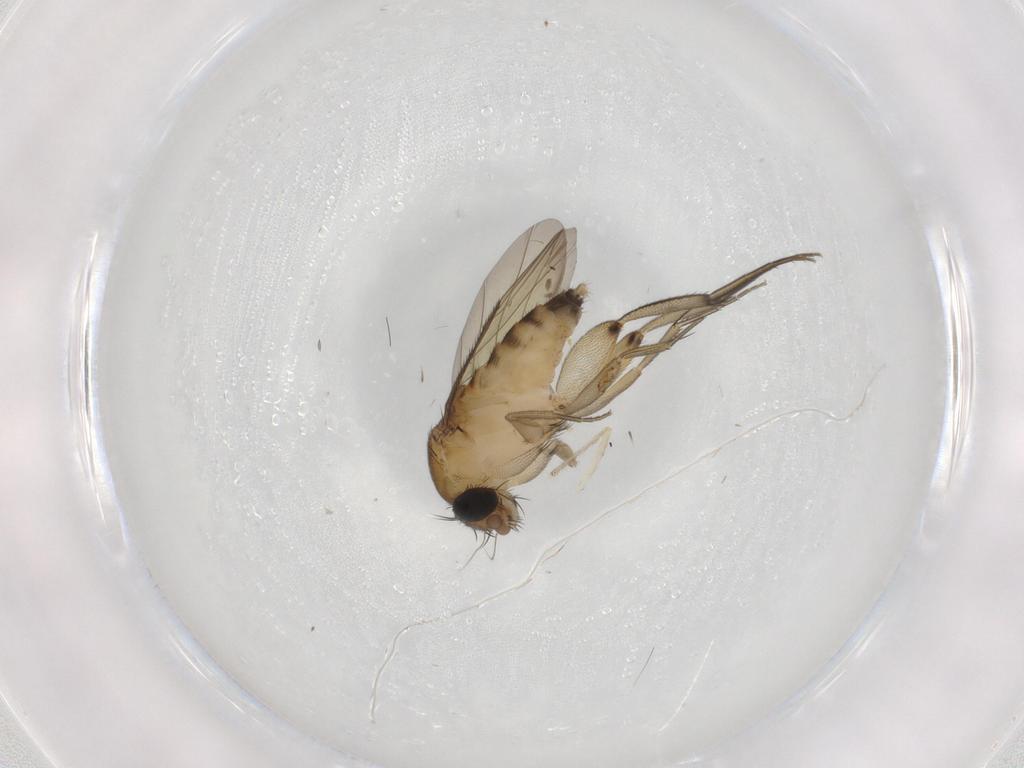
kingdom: Animalia
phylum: Arthropoda
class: Insecta
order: Diptera
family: Phoridae
